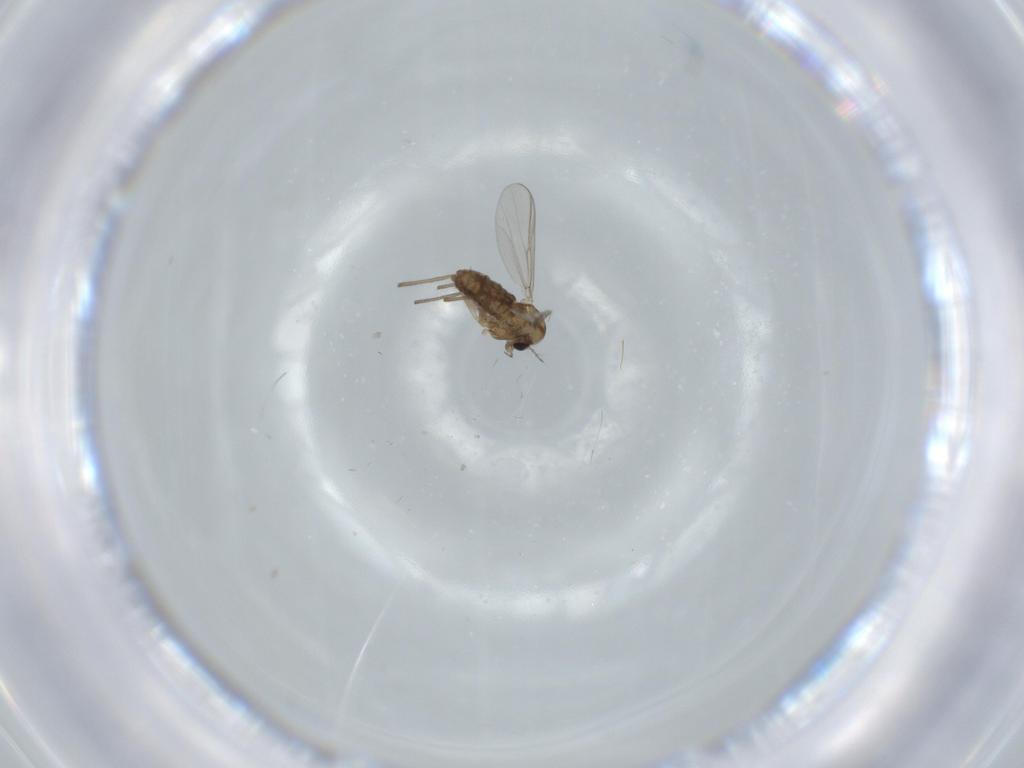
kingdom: Animalia
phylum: Arthropoda
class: Insecta
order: Diptera
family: Chironomidae
